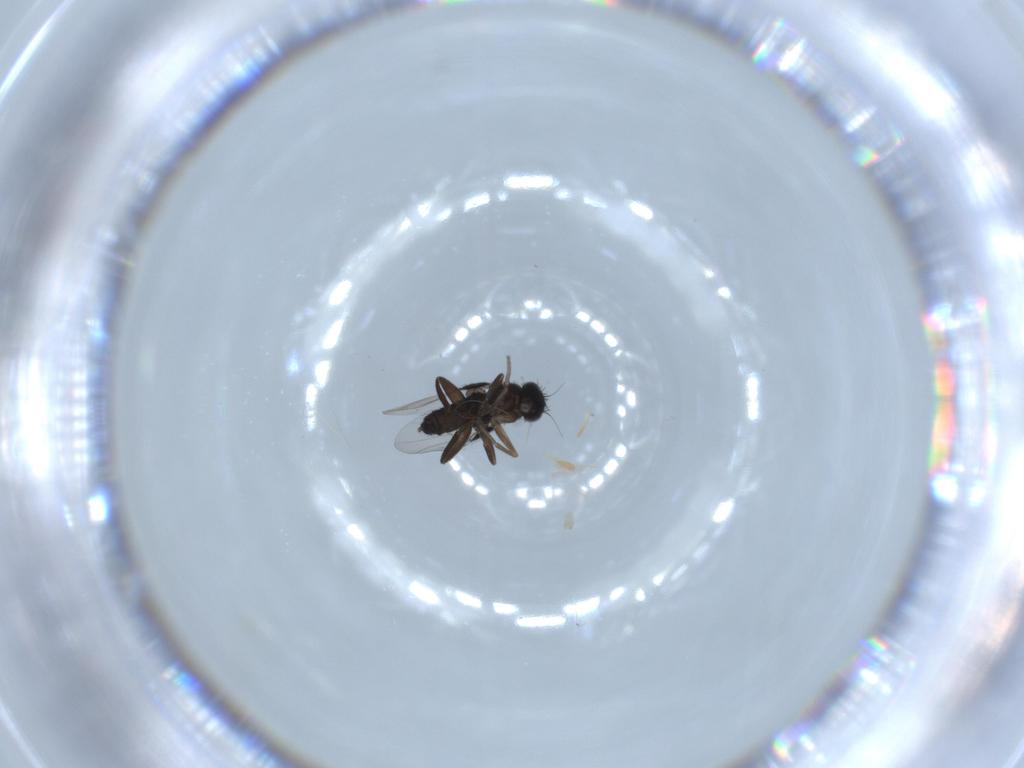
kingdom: Animalia
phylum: Arthropoda
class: Insecta
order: Diptera
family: Phoridae
